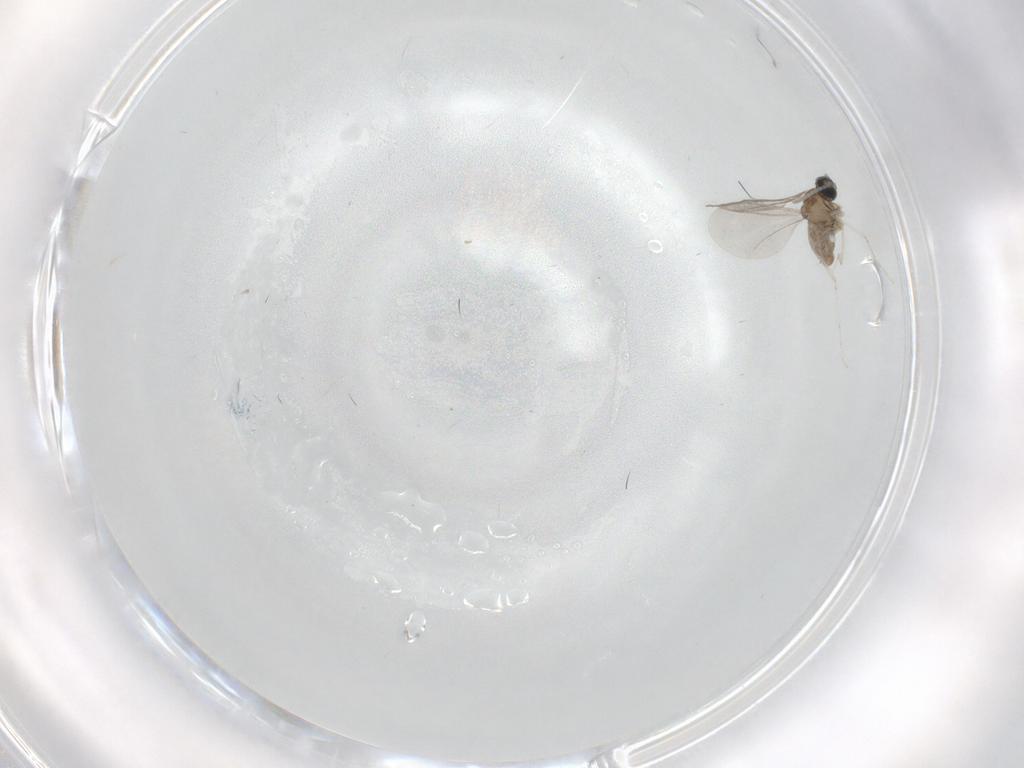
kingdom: Animalia
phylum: Arthropoda
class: Insecta
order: Diptera
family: Cecidomyiidae
